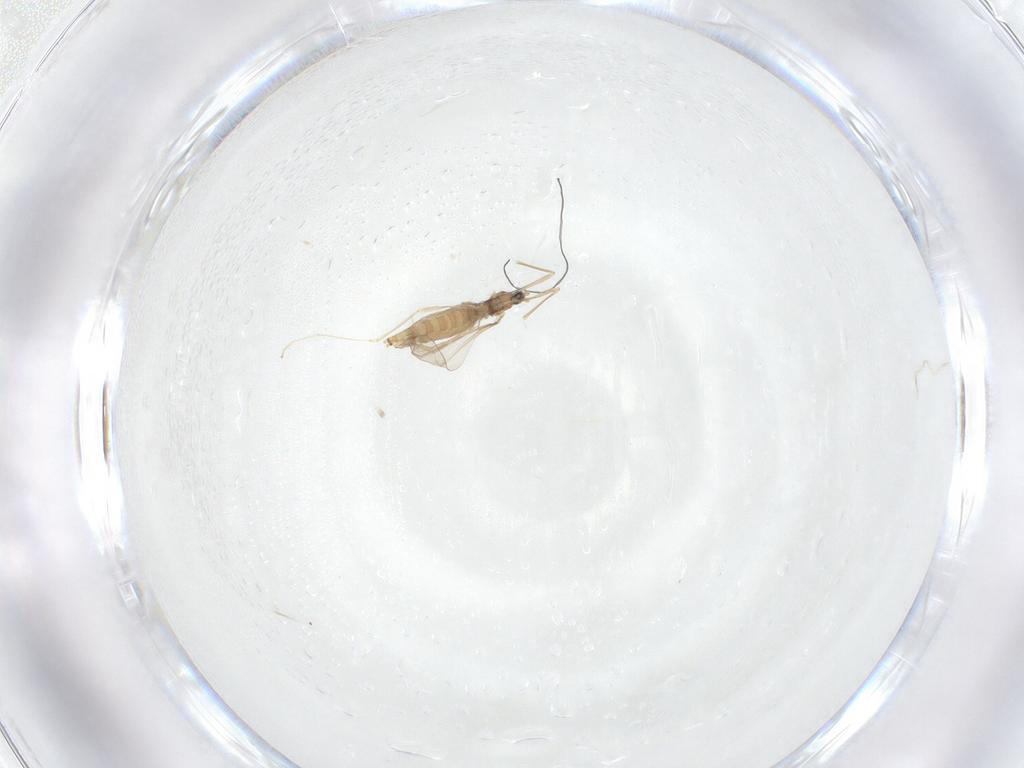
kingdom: Animalia
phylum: Arthropoda
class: Insecta
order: Diptera
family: Cecidomyiidae
